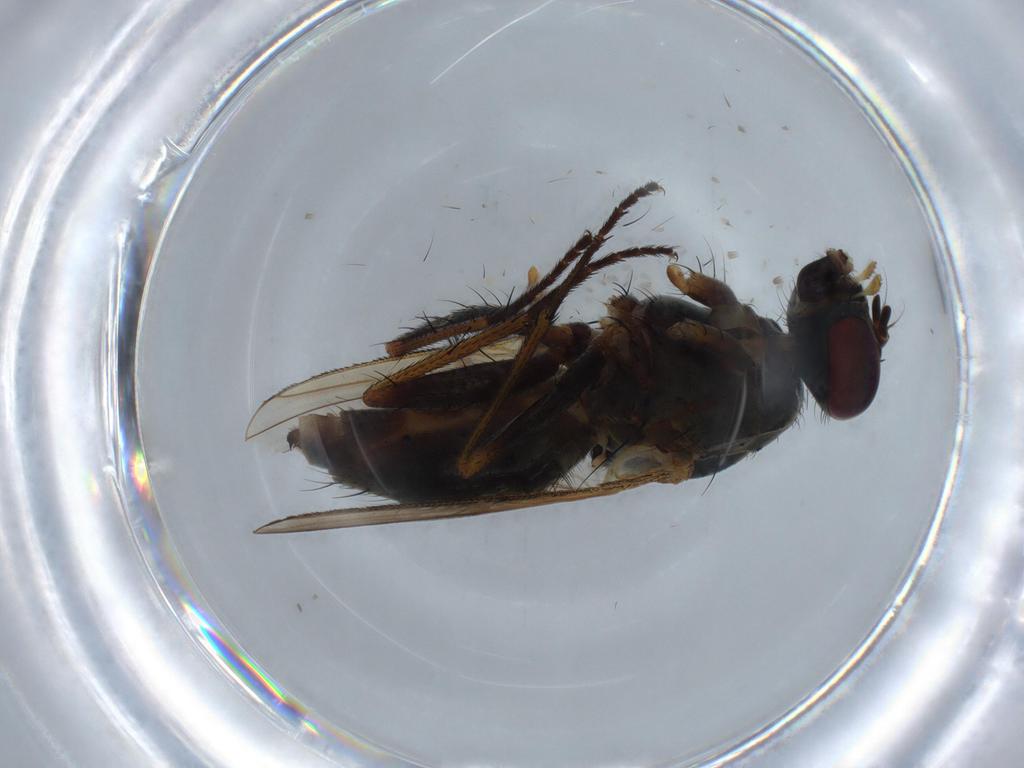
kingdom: Animalia
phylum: Arthropoda
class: Insecta
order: Diptera
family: Muscidae
